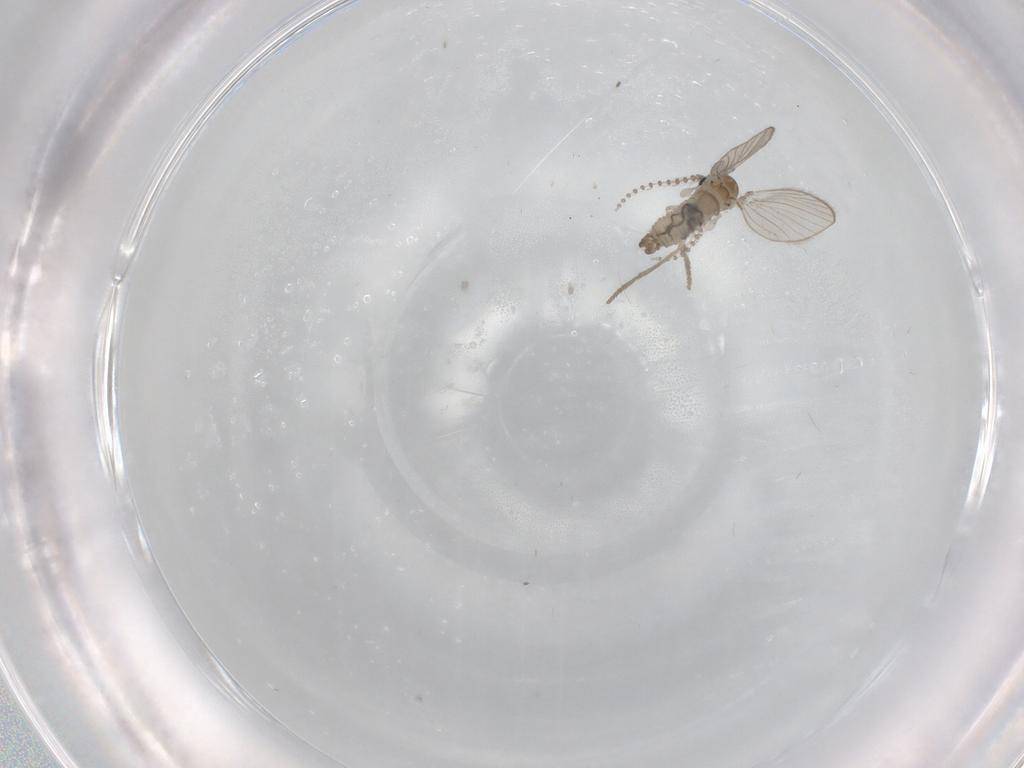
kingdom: Animalia
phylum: Arthropoda
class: Insecta
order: Diptera
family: Psychodidae
